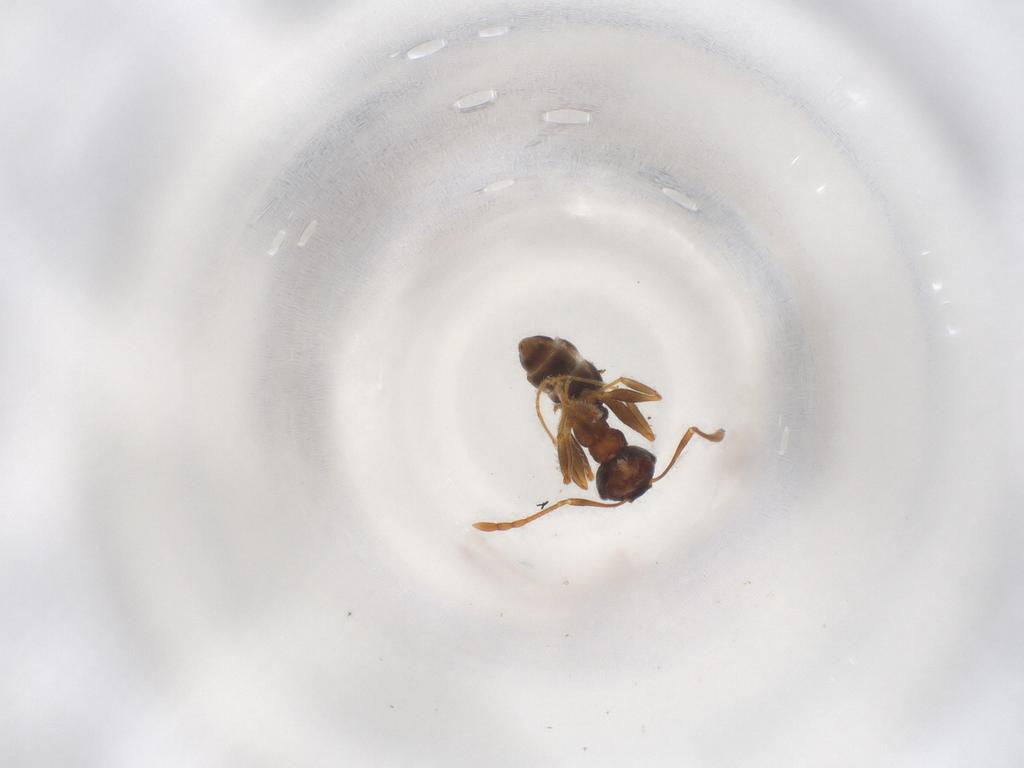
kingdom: Animalia
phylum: Arthropoda
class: Insecta
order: Hymenoptera
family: Formicidae
